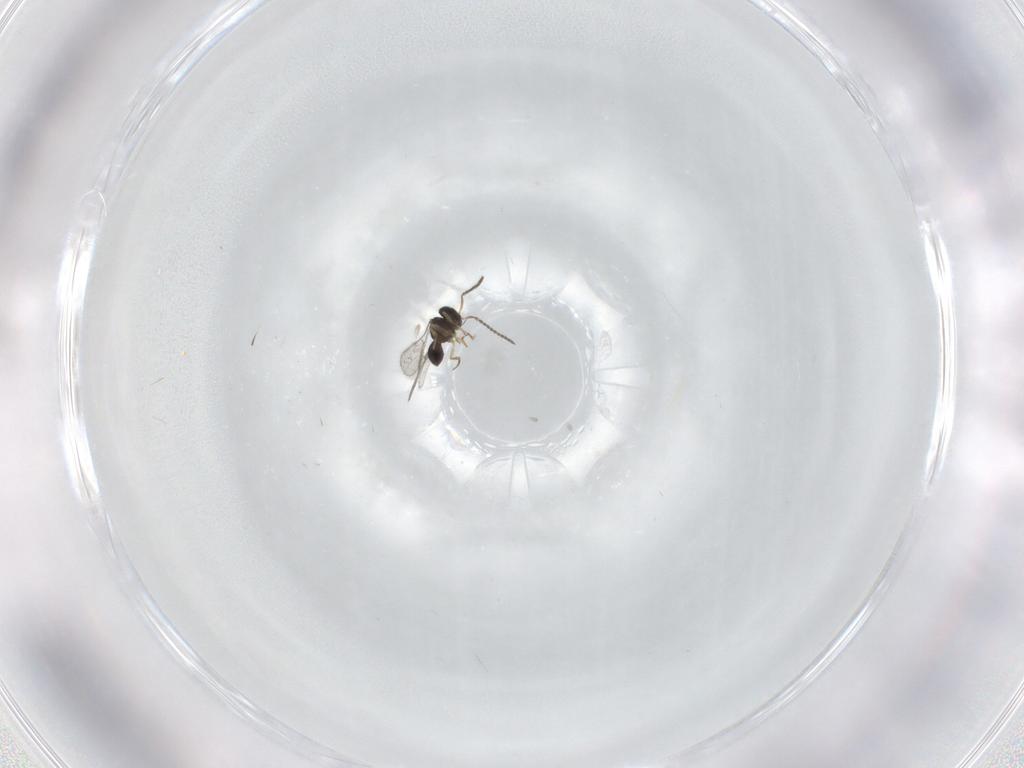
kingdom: Animalia
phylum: Arthropoda
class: Insecta
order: Hymenoptera
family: Scelionidae
